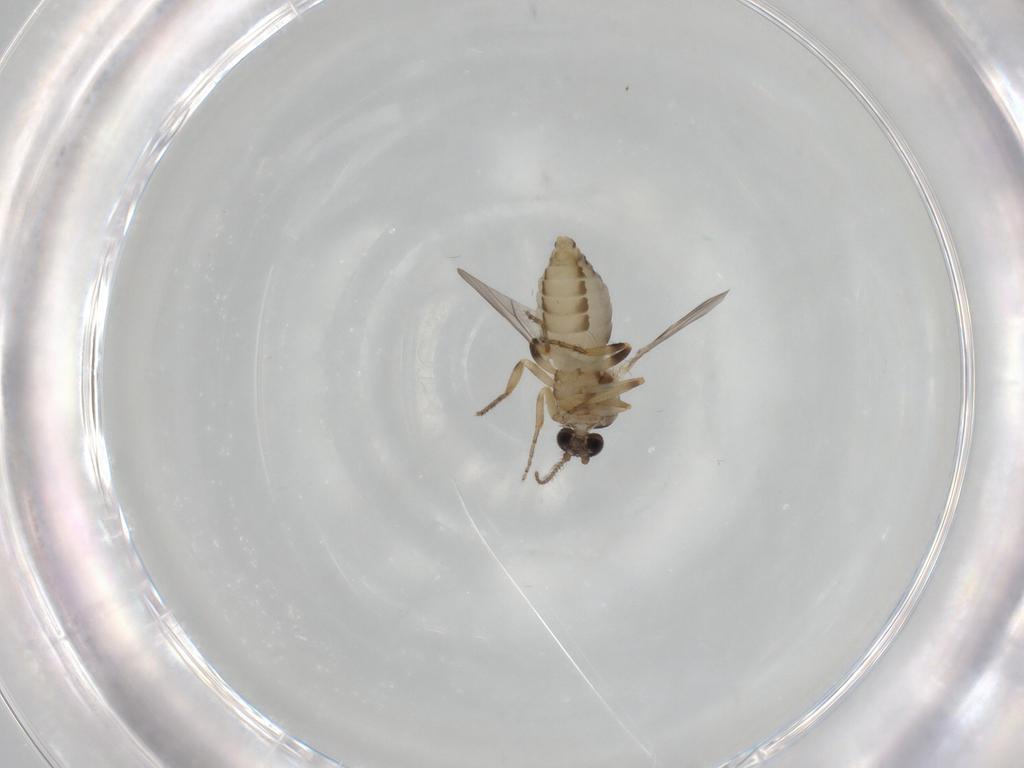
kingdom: Animalia
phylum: Arthropoda
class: Insecta
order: Diptera
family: Ceratopogonidae
